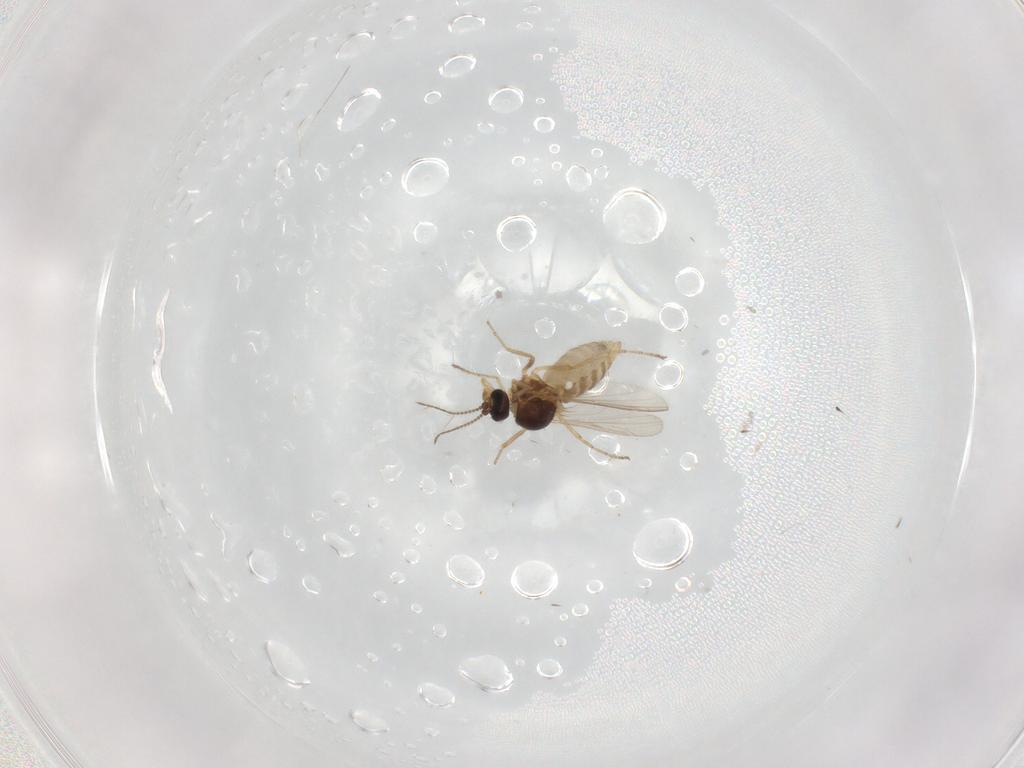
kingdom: Animalia
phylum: Arthropoda
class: Insecta
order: Diptera
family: Ceratopogonidae
